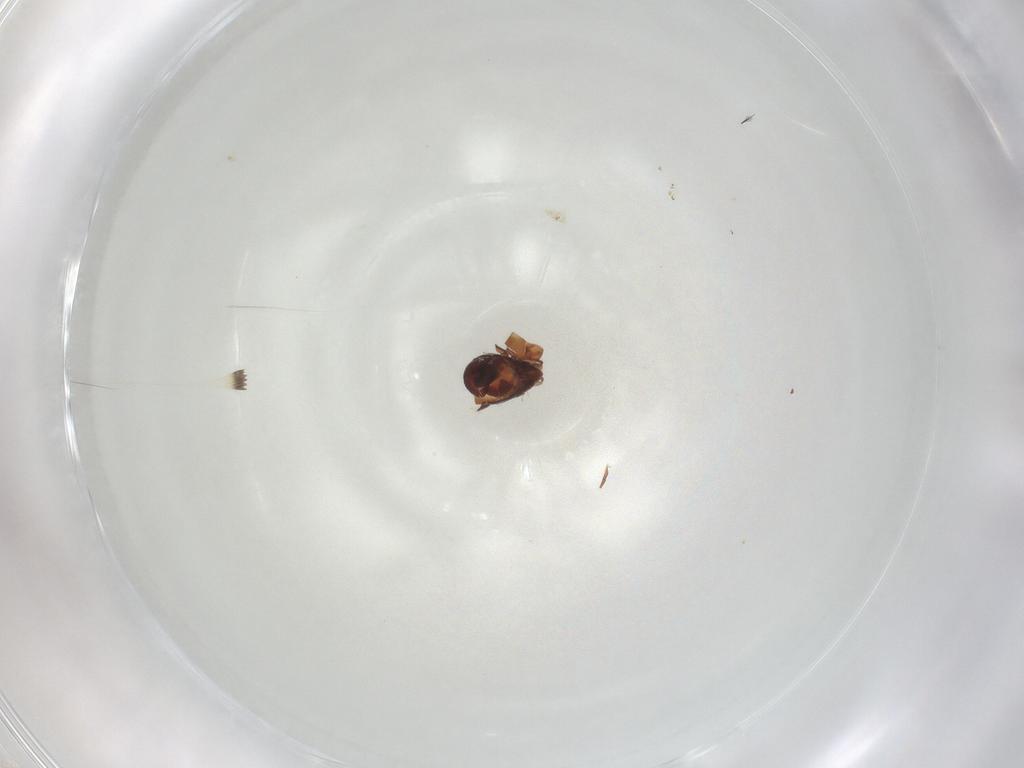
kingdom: Animalia
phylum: Arthropoda
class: Arachnida
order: Sarcoptiformes
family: Humerobatidae
